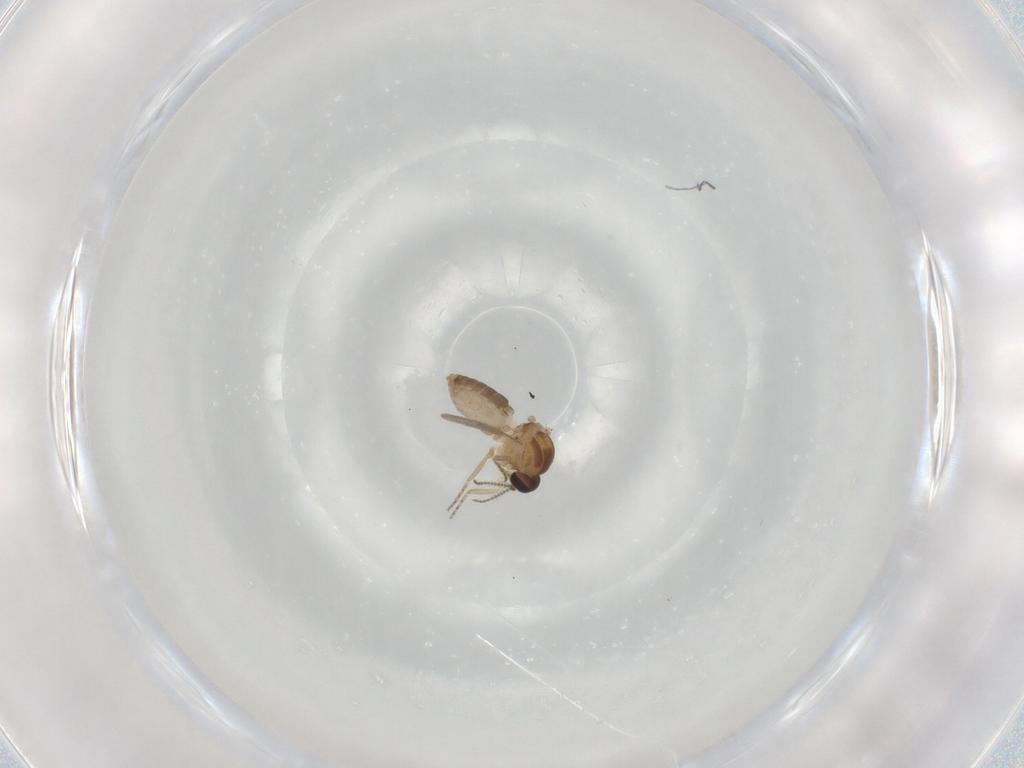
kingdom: Animalia
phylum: Arthropoda
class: Insecta
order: Diptera
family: Ceratopogonidae
